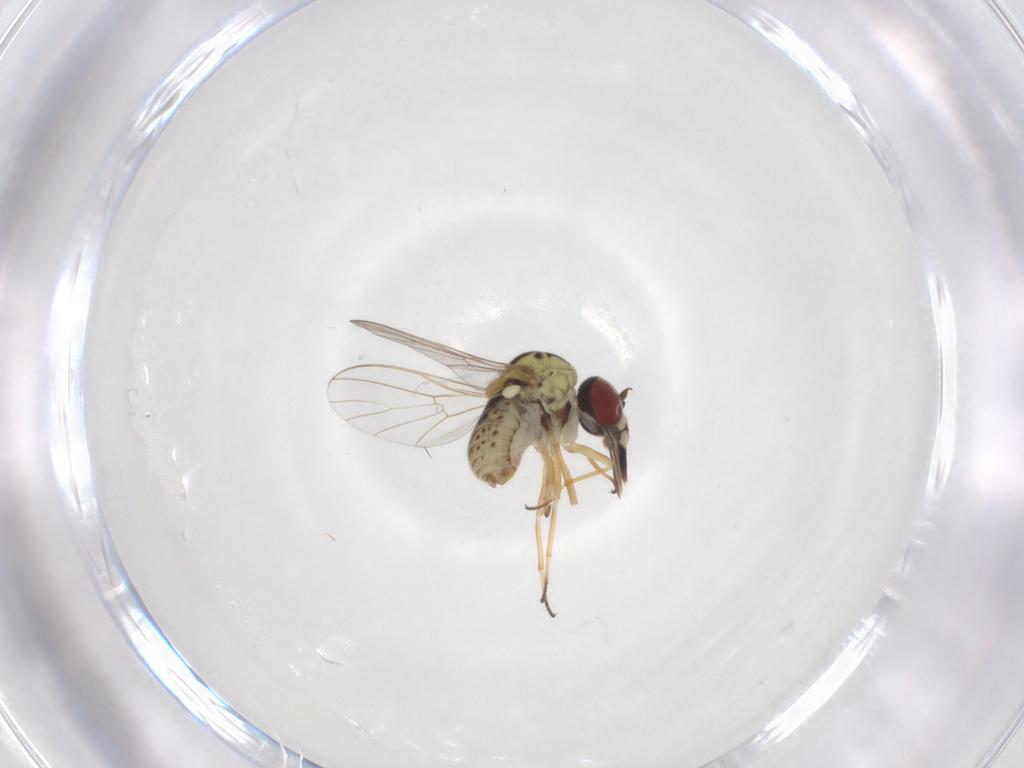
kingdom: Animalia
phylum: Arthropoda
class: Insecta
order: Diptera
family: Bombyliidae
